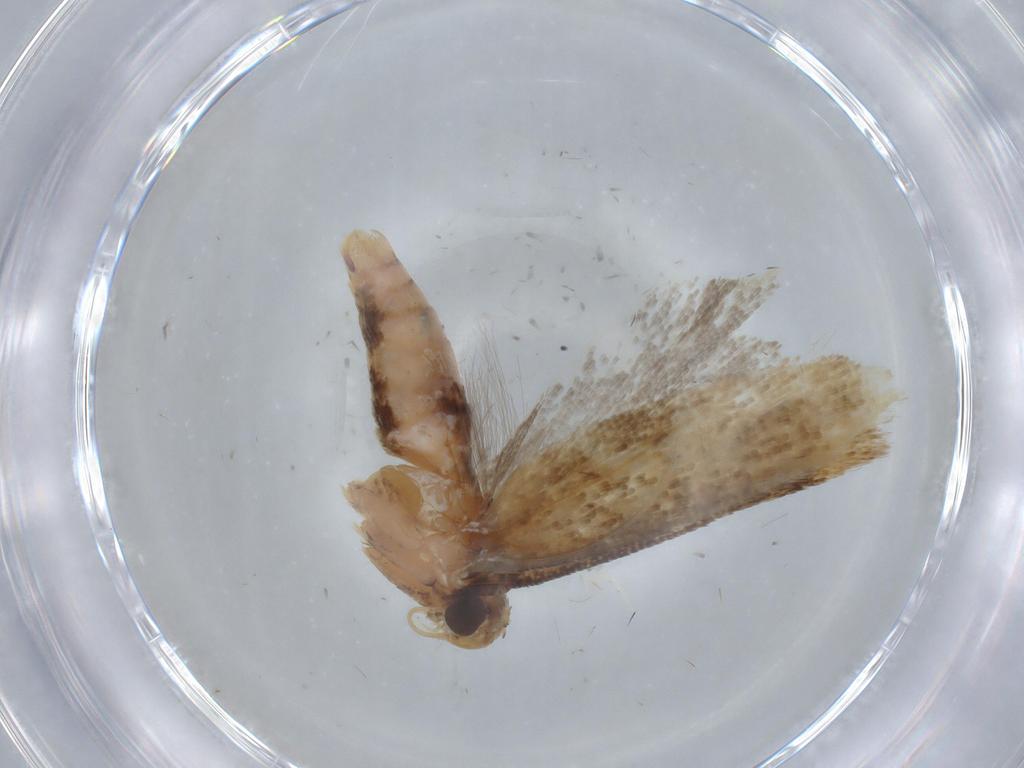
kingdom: Animalia
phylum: Arthropoda
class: Insecta
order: Lepidoptera
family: Gelechiidae
